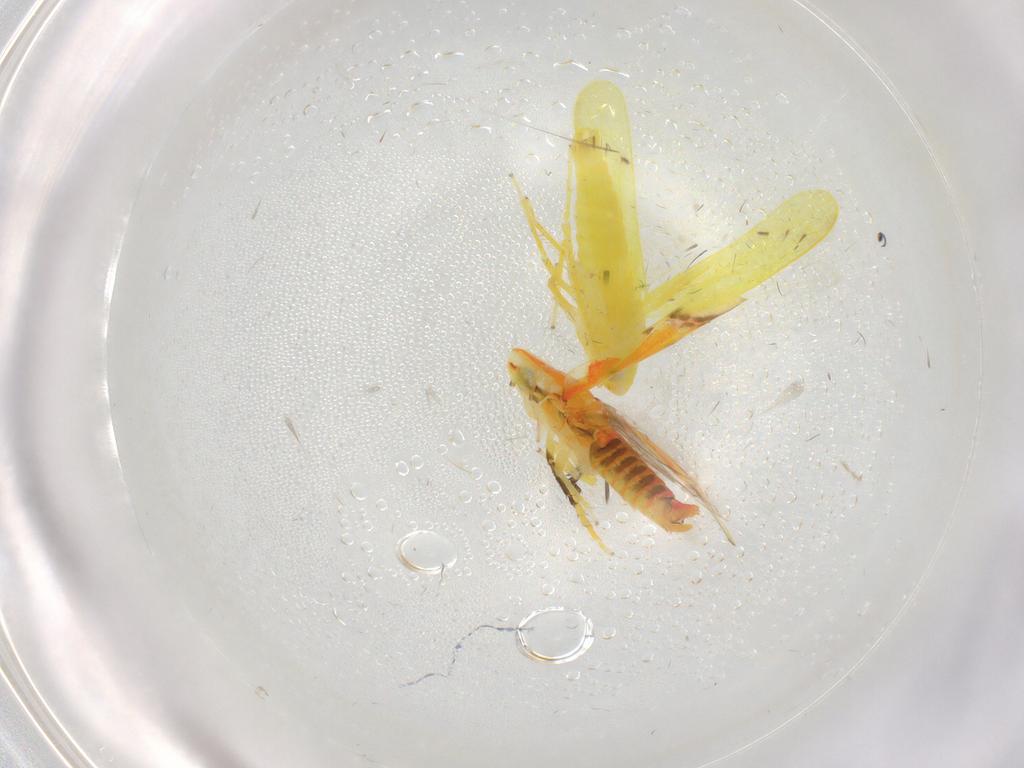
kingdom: Animalia
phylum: Arthropoda
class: Insecta
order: Hemiptera
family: Cicadellidae
